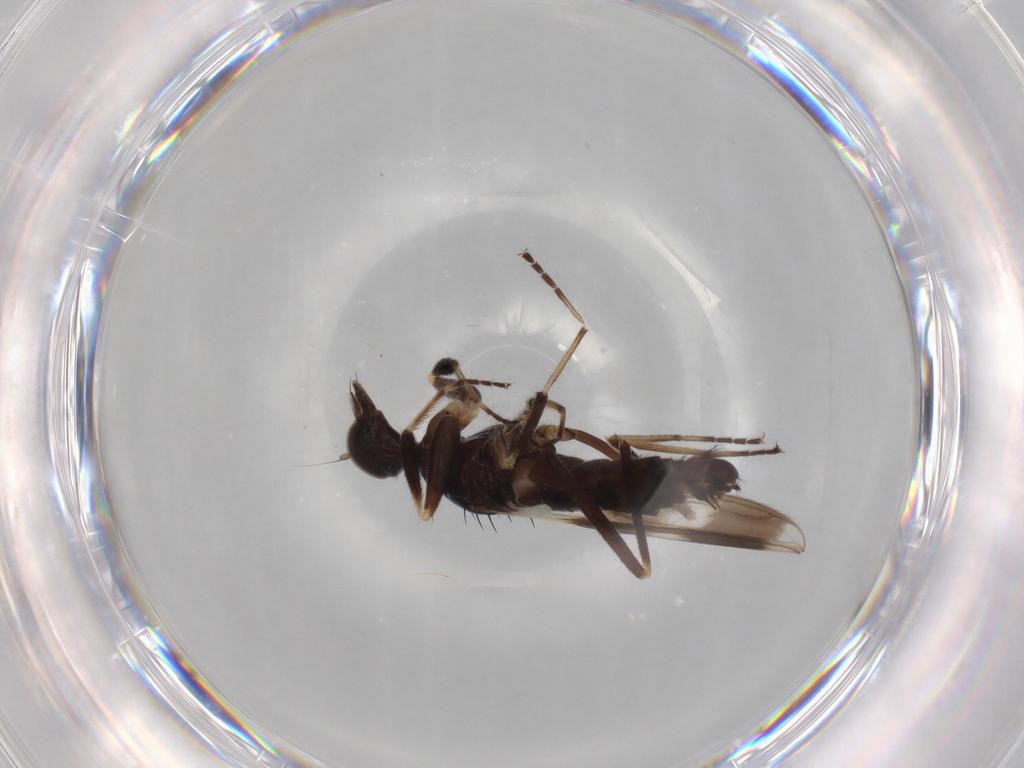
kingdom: Animalia
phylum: Arthropoda
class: Insecta
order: Diptera
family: Hybotidae
